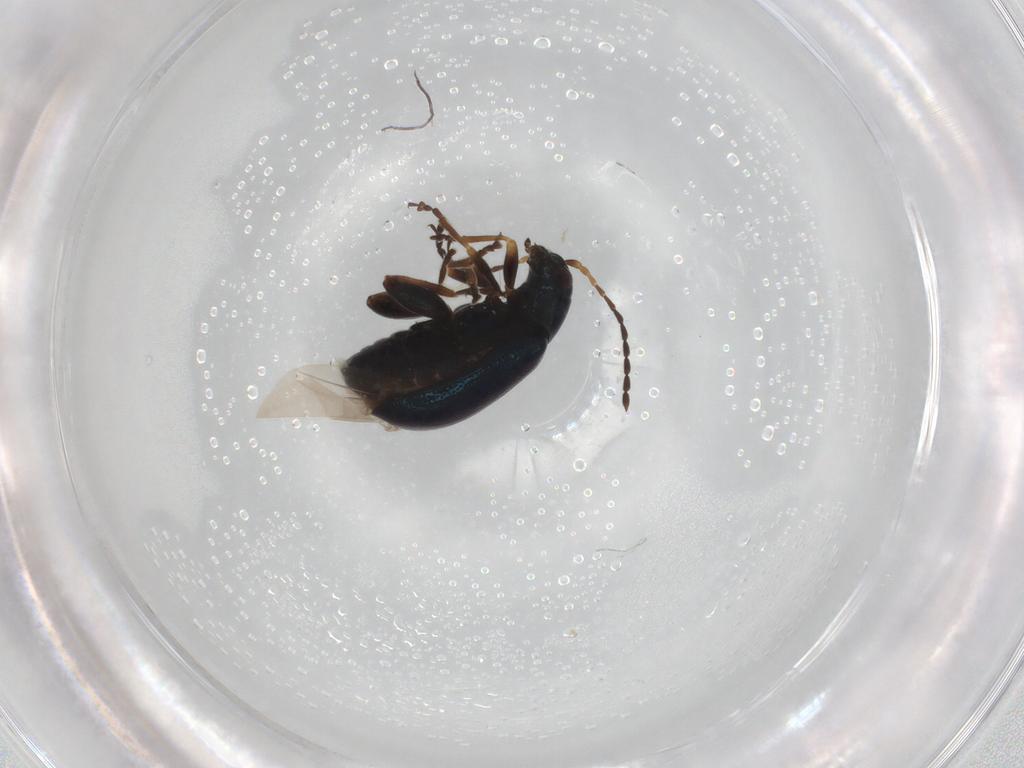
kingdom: Animalia
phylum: Arthropoda
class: Insecta
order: Coleoptera
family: Chrysomelidae
